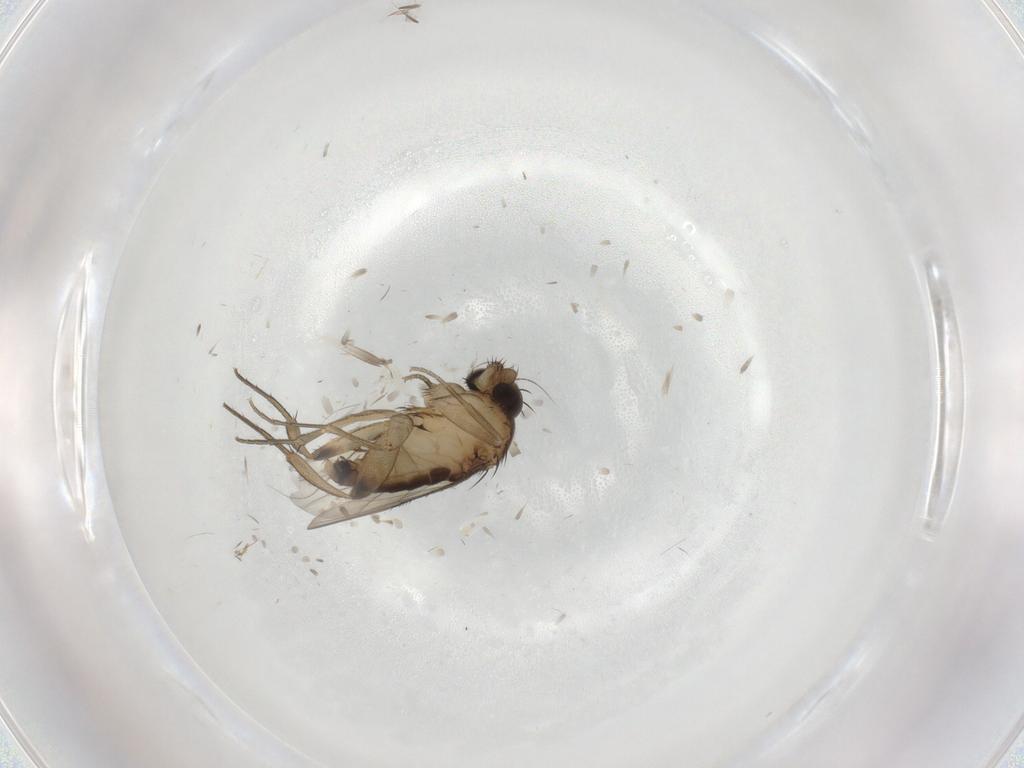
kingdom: Animalia
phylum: Arthropoda
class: Insecta
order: Diptera
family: Dolichopodidae
